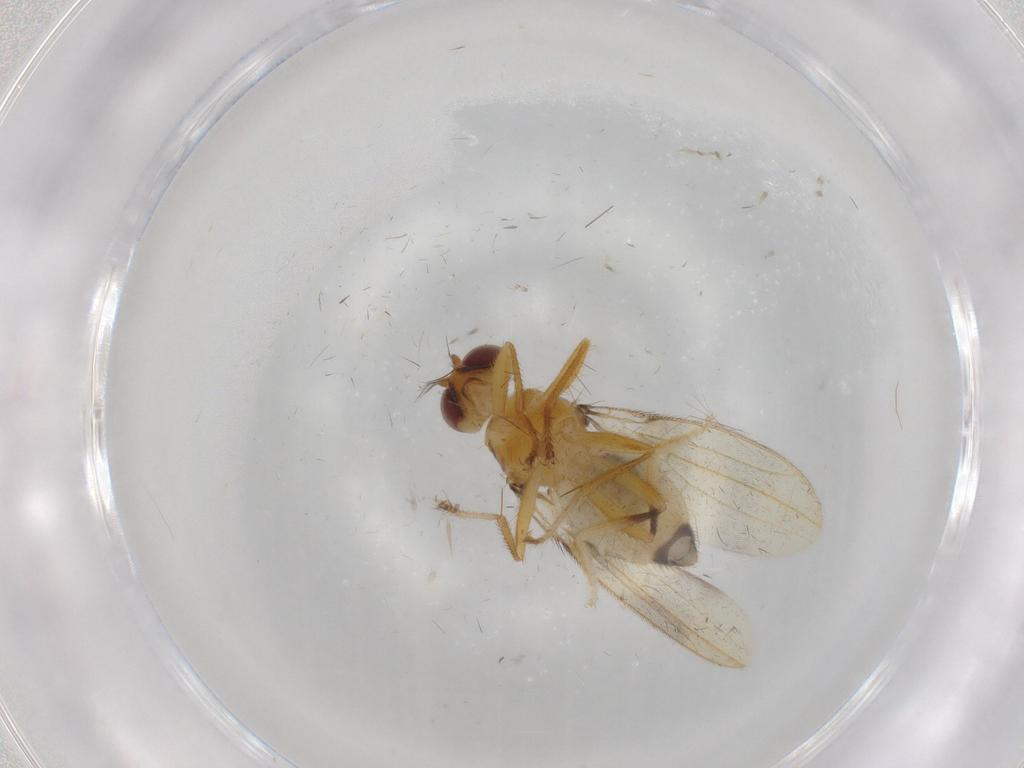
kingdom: Animalia
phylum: Arthropoda
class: Insecta
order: Diptera
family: Periscelididae
